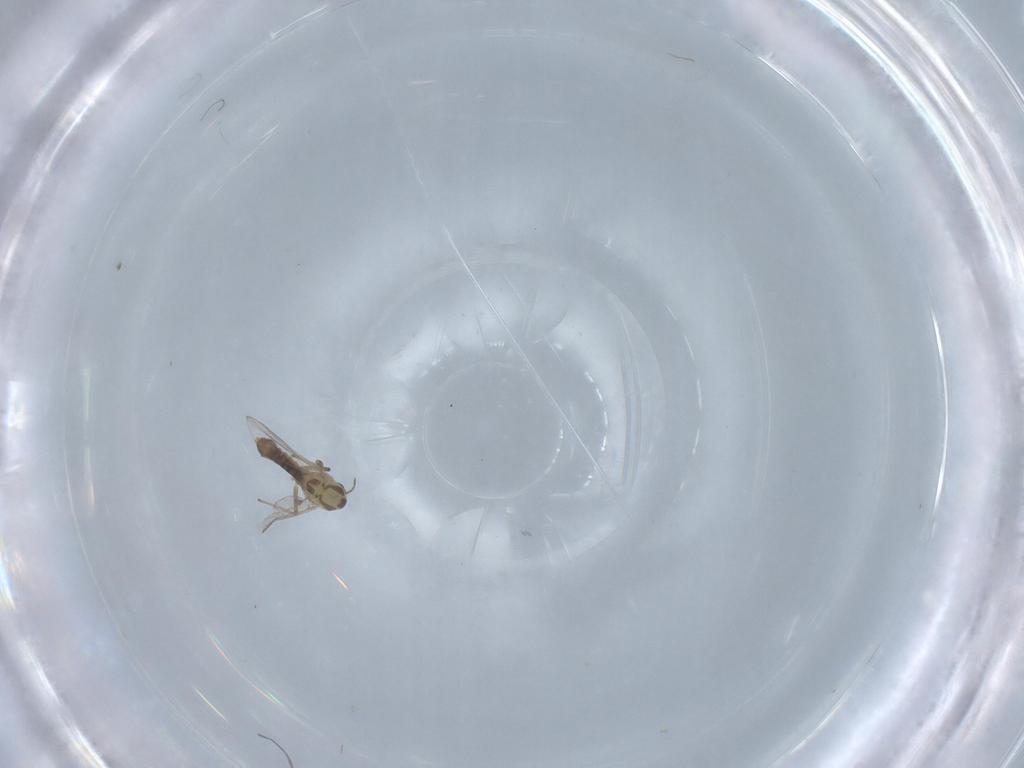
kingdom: Animalia
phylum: Arthropoda
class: Insecta
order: Diptera
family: Chironomidae
